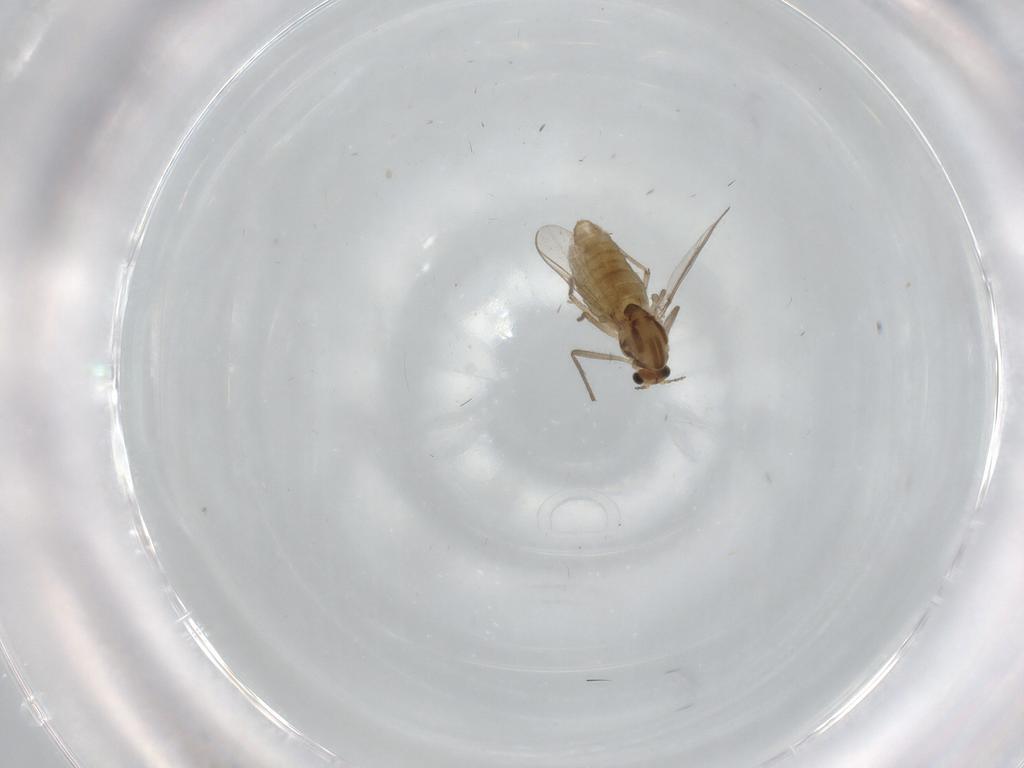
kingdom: Animalia
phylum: Arthropoda
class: Insecta
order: Diptera
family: Chironomidae
